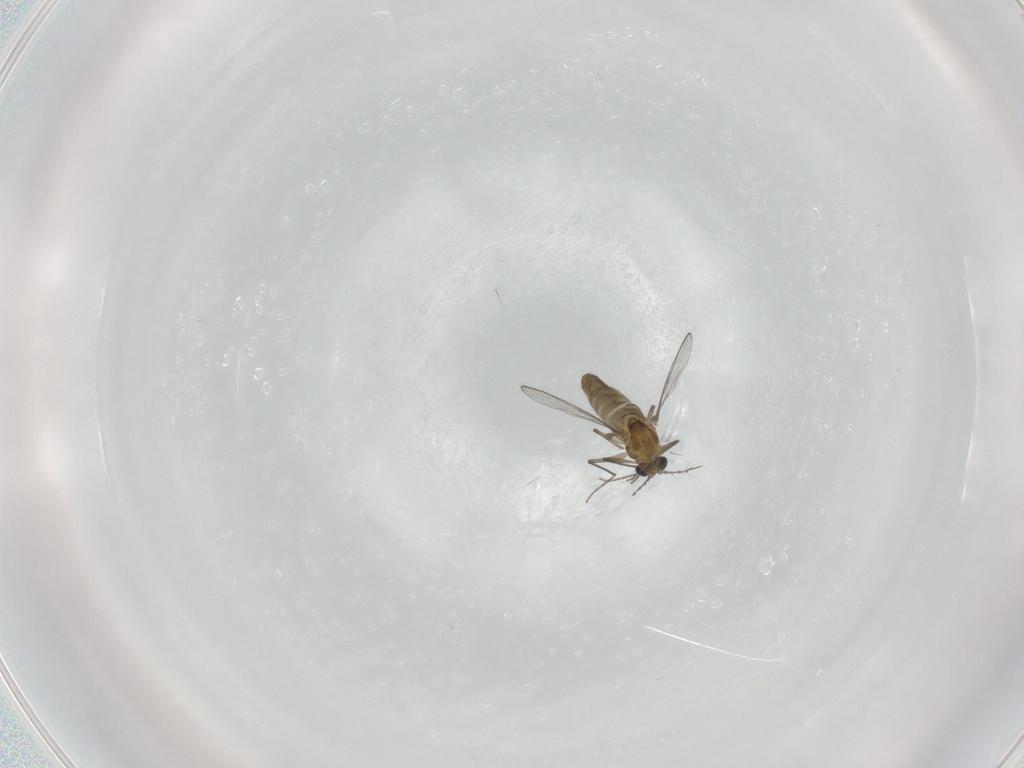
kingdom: Animalia
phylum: Arthropoda
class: Insecta
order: Diptera
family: Chironomidae
